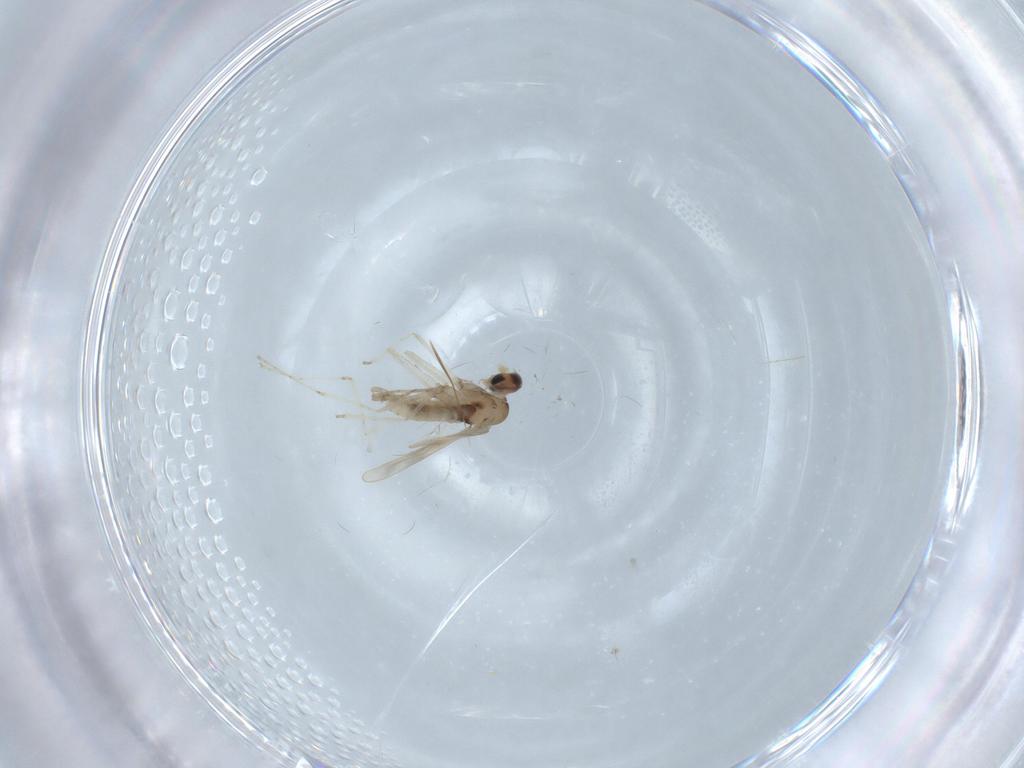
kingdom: Animalia
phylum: Arthropoda
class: Insecta
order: Diptera
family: Cecidomyiidae
